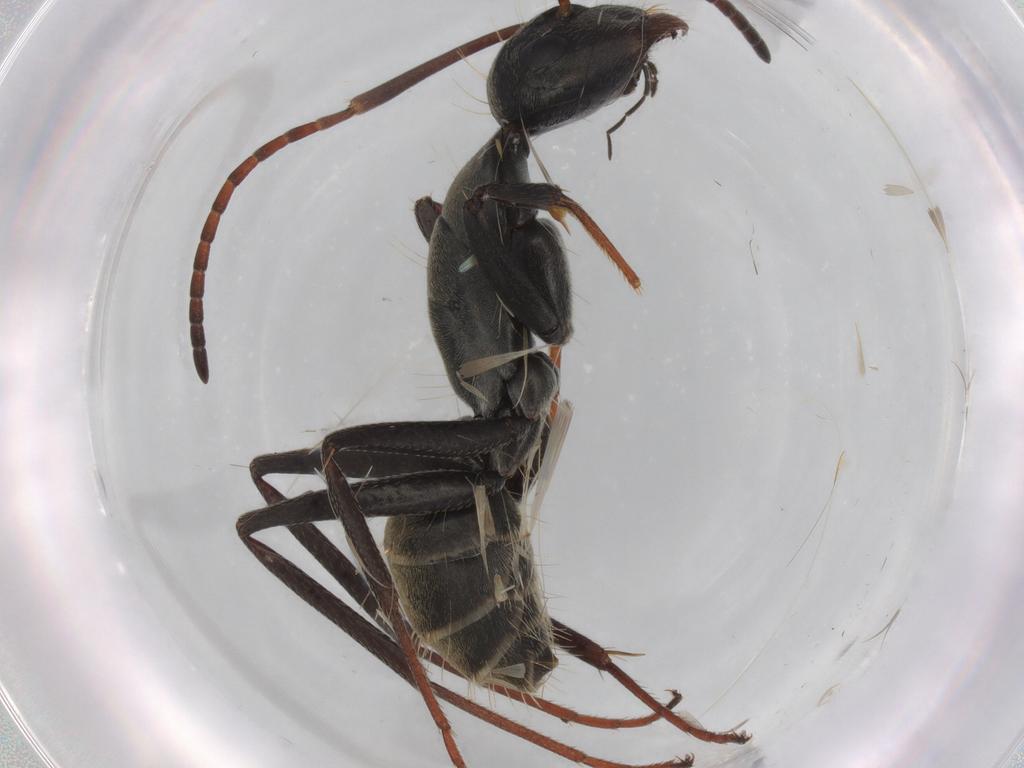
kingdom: Animalia
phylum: Arthropoda
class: Insecta
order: Hymenoptera
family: Formicidae
